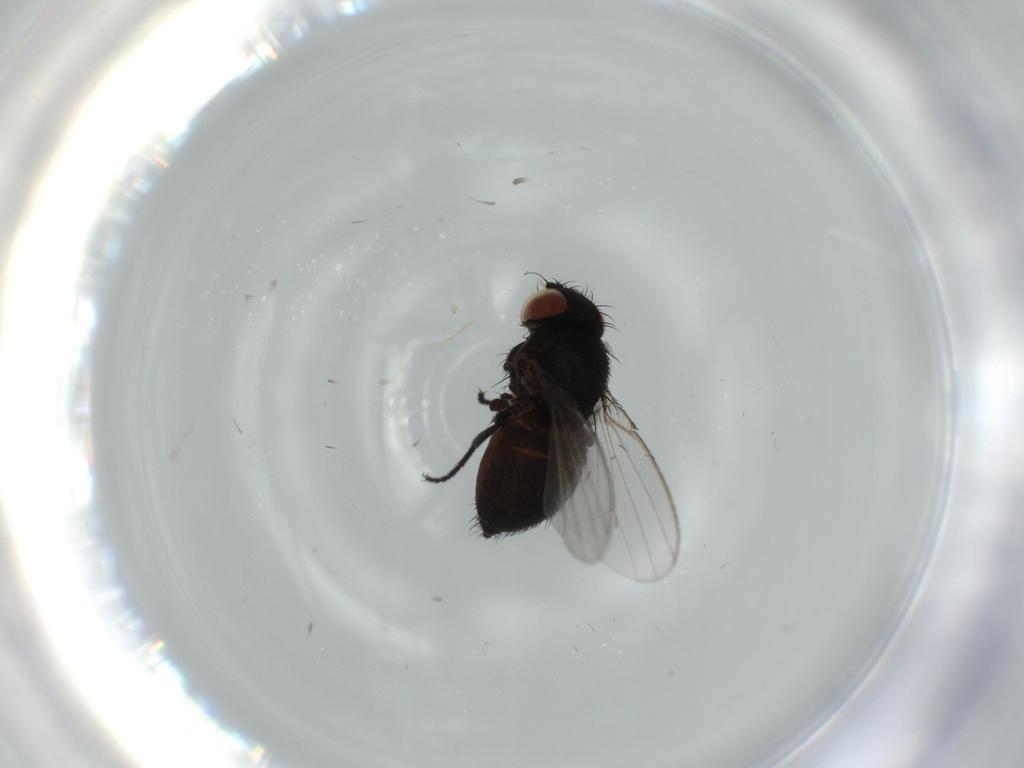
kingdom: Animalia
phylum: Arthropoda
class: Insecta
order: Diptera
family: Milichiidae
